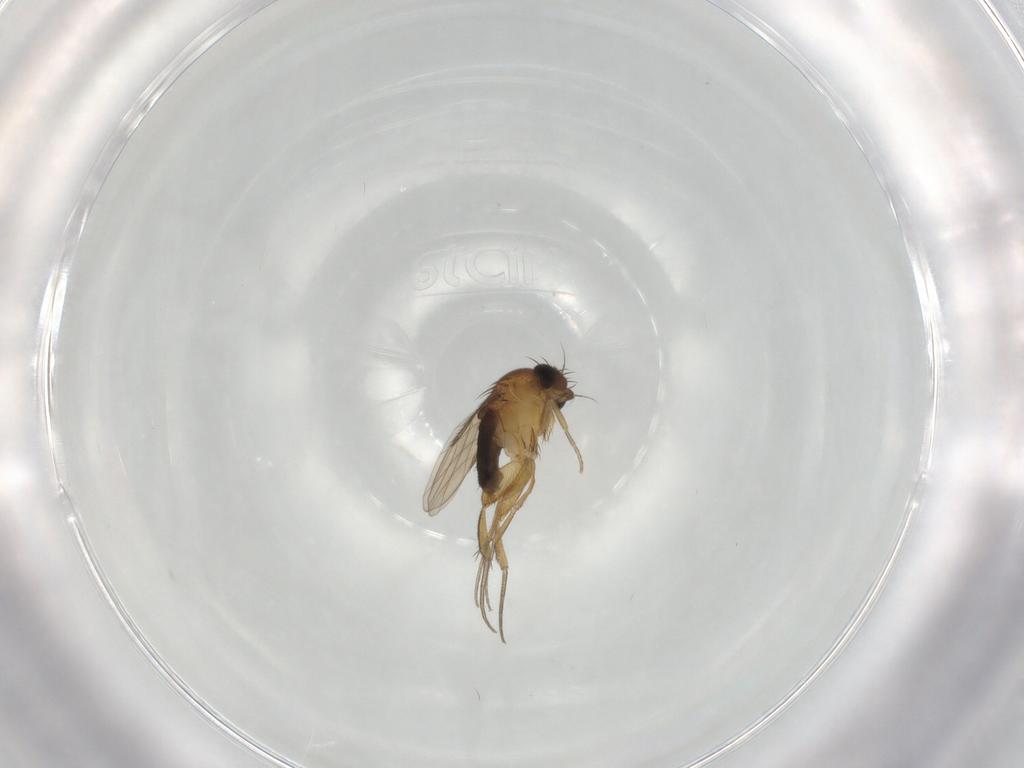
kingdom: Animalia
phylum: Arthropoda
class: Insecta
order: Diptera
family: Phoridae
